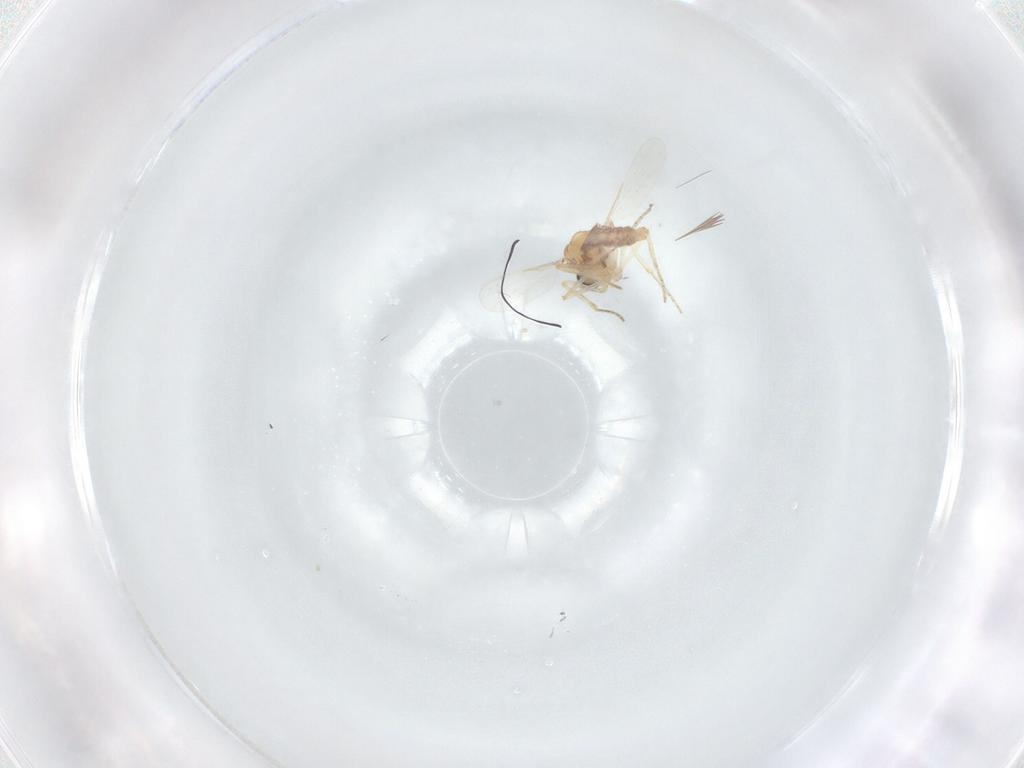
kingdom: Animalia
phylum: Arthropoda
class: Insecta
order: Diptera
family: Ceratopogonidae
